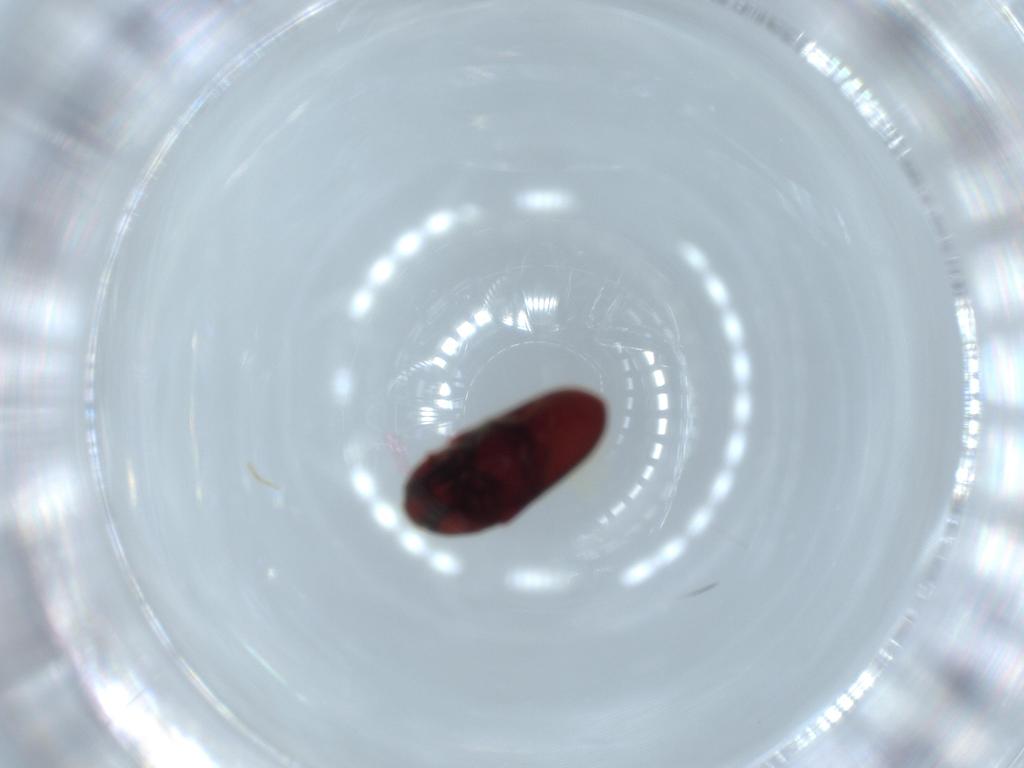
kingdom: Animalia
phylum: Arthropoda
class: Insecta
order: Coleoptera
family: Throscidae
